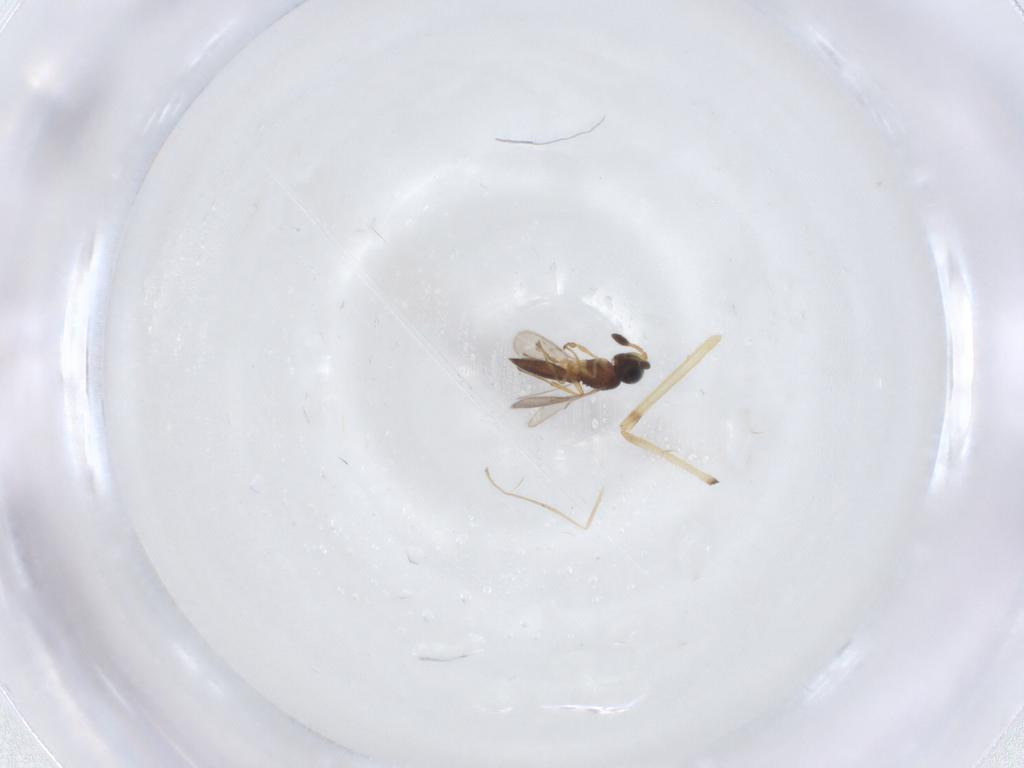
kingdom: Animalia
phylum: Arthropoda
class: Insecta
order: Hymenoptera
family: Scelionidae
